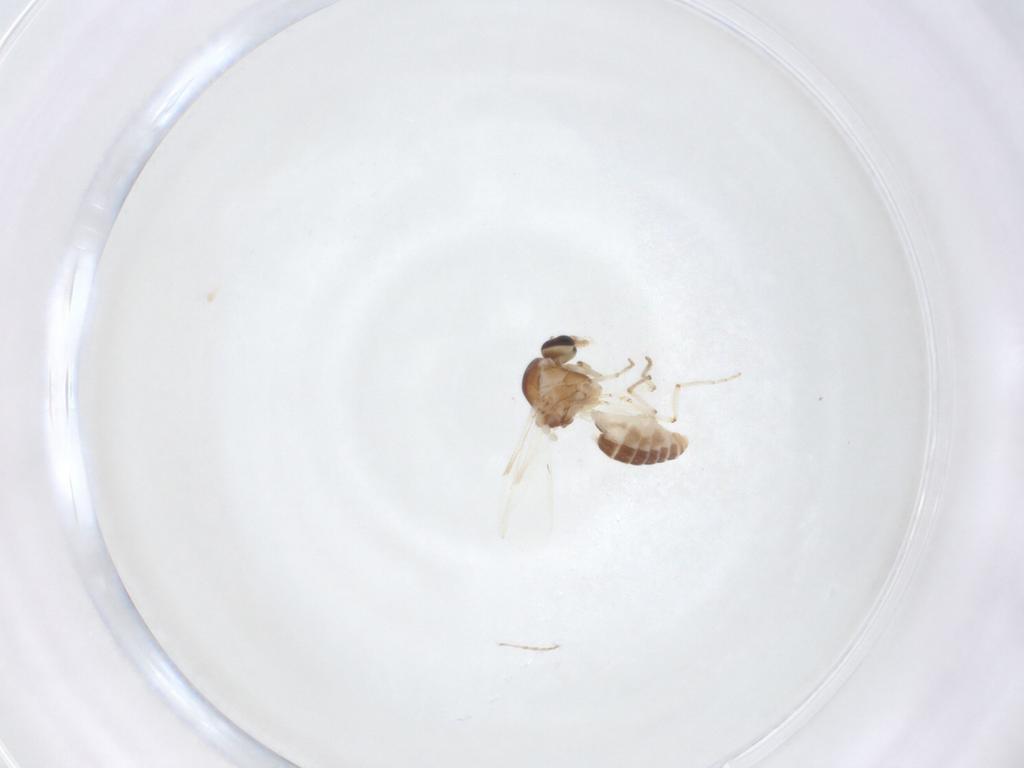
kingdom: Animalia
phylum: Arthropoda
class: Insecta
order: Diptera
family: Ceratopogonidae
